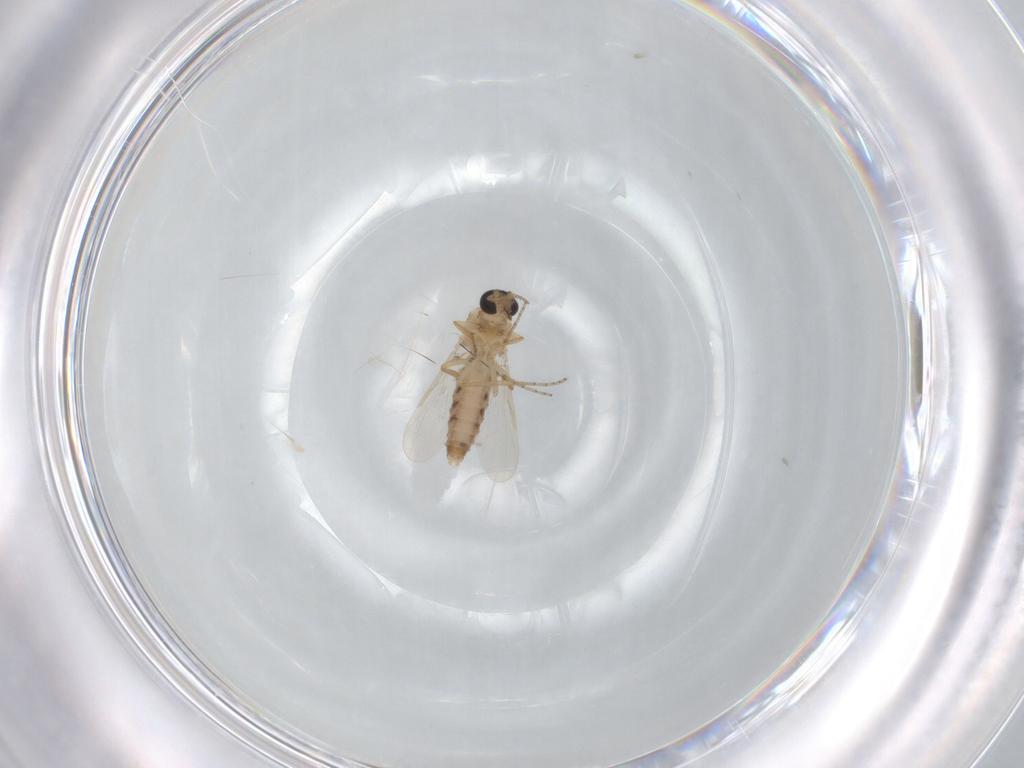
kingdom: Animalia
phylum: Arthropoda
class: Insecta
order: Diptera
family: Ceratopogonidae
